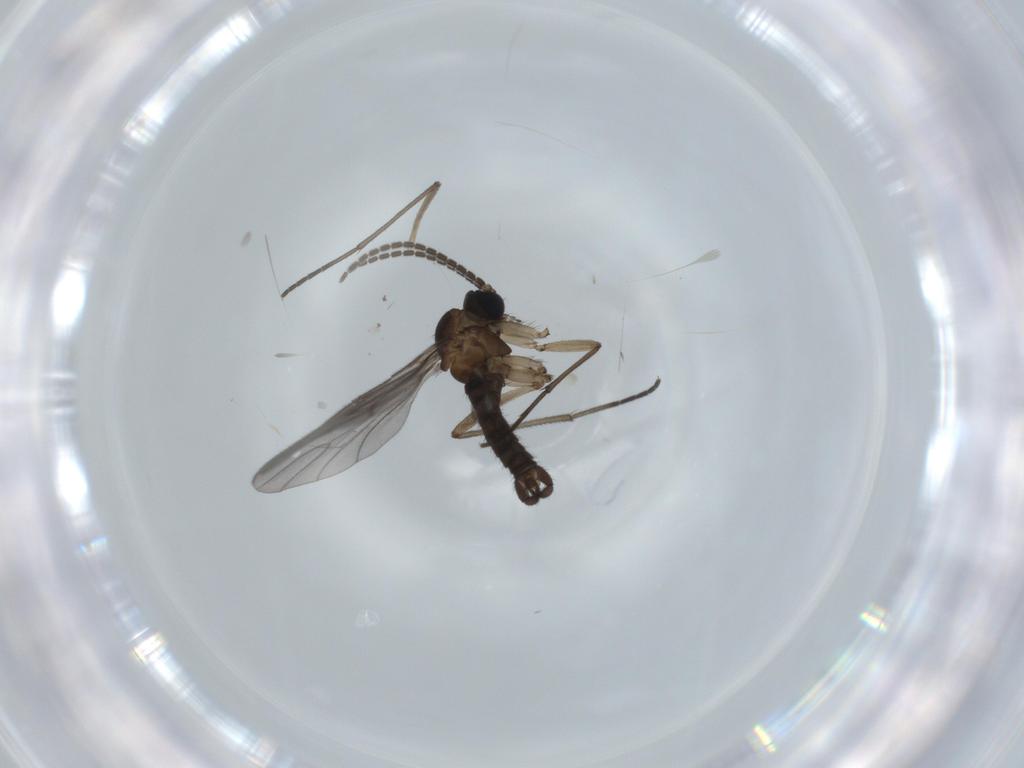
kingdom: Animalia
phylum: Arthropoda
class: Insecta
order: Diptera
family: Sciaridae
